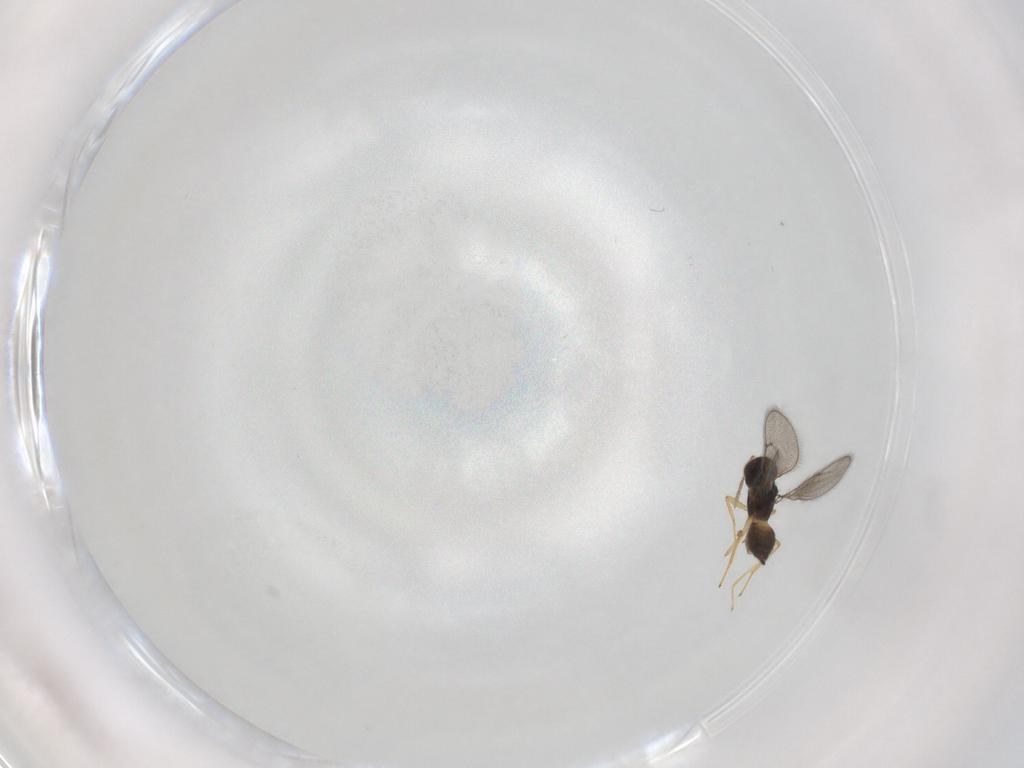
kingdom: Animalia
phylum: Arthropoda
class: Insecta
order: Hymenoptera
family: Eulophidae
